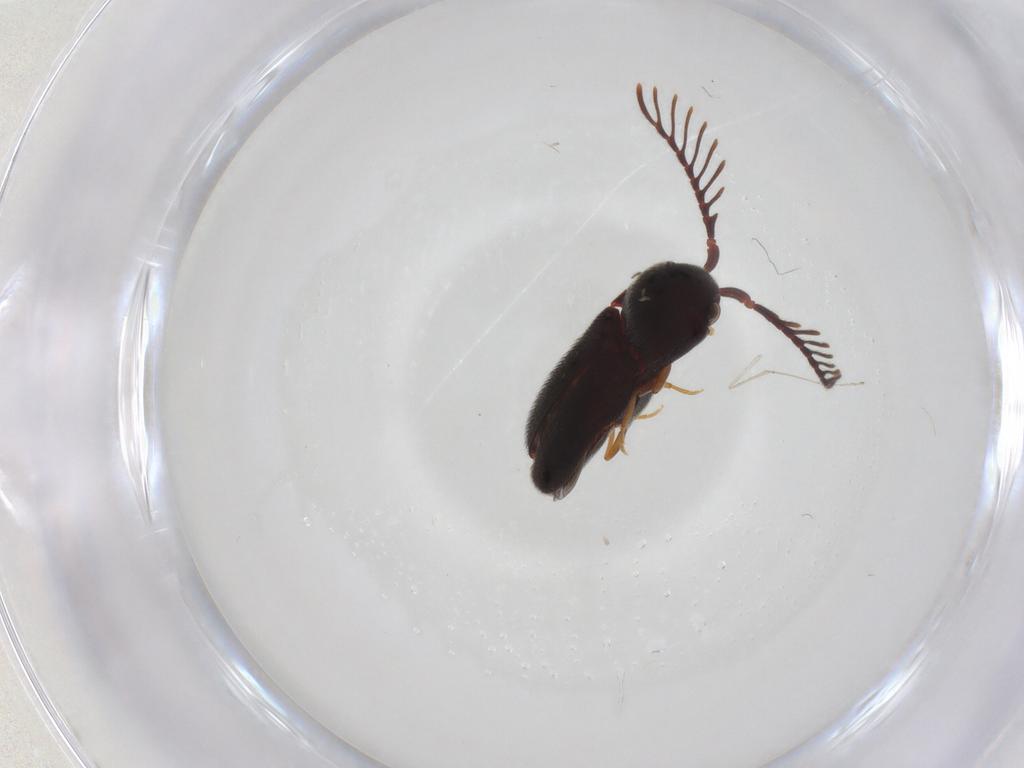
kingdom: Animalia
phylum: Arthropoda
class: Insecta
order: Coleoptera
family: Eucnemidae
